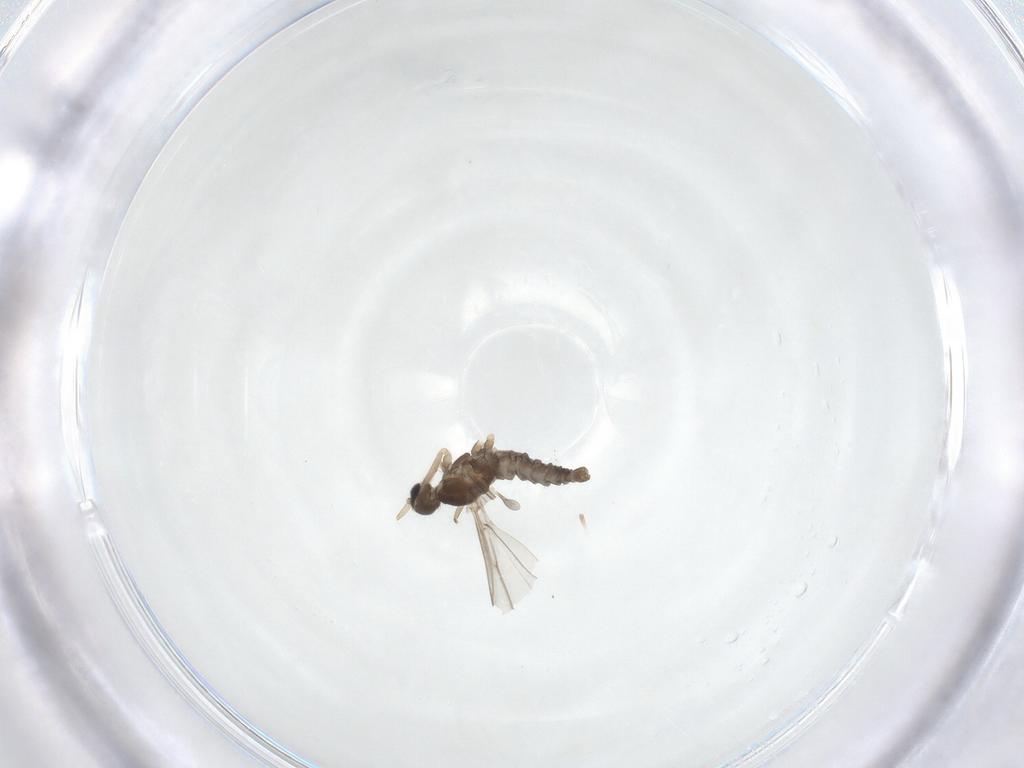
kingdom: Animalia
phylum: Arthropoda
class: Insecta
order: Diptera
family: Cecidomyiidae
